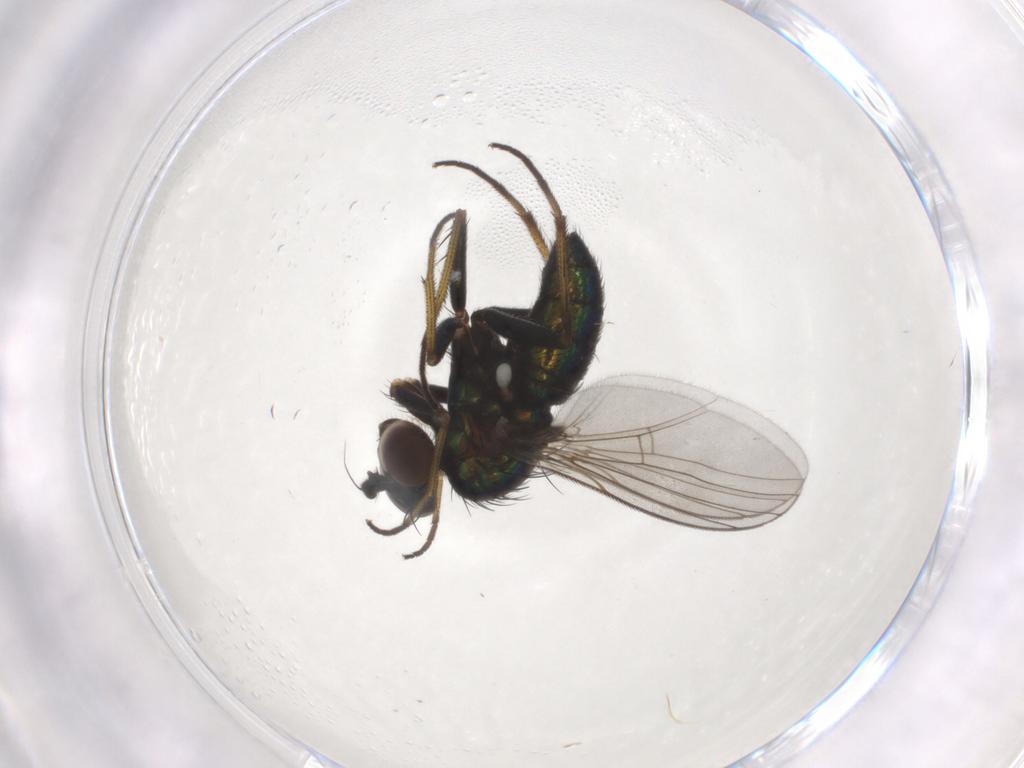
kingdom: Animalia
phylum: Arthropoda
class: Insecta
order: Diptera
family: Dolichopodidae
